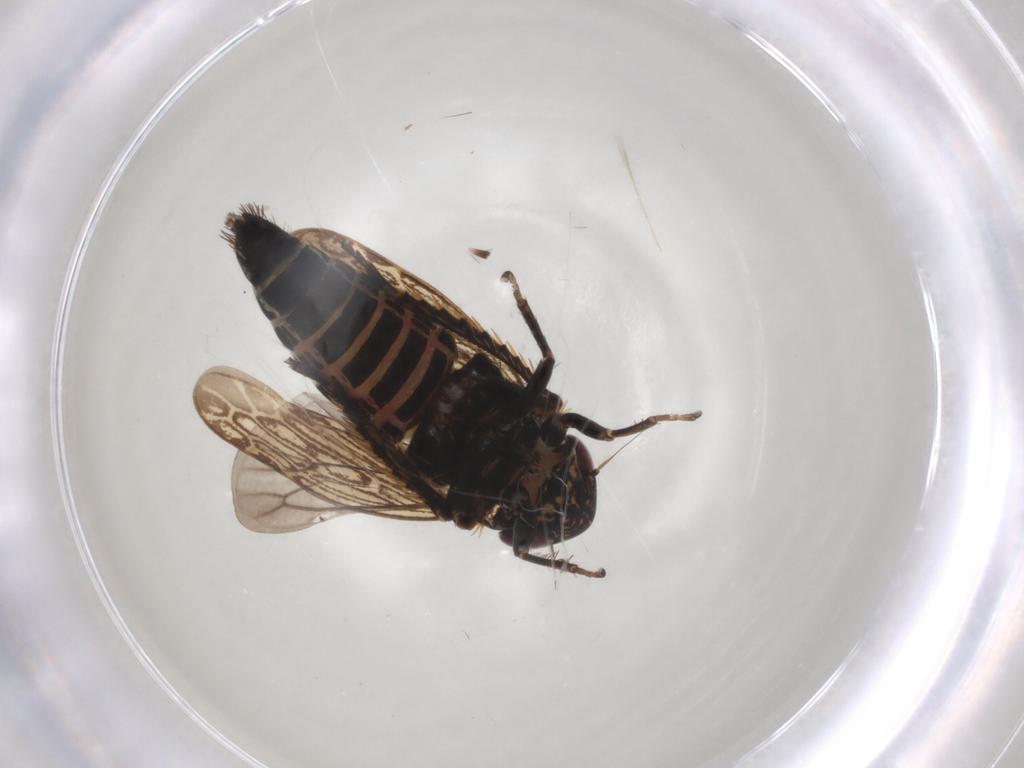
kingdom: Animalia
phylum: Arthropoda
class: Insecta
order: Hemiptera
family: Cicadellidae
